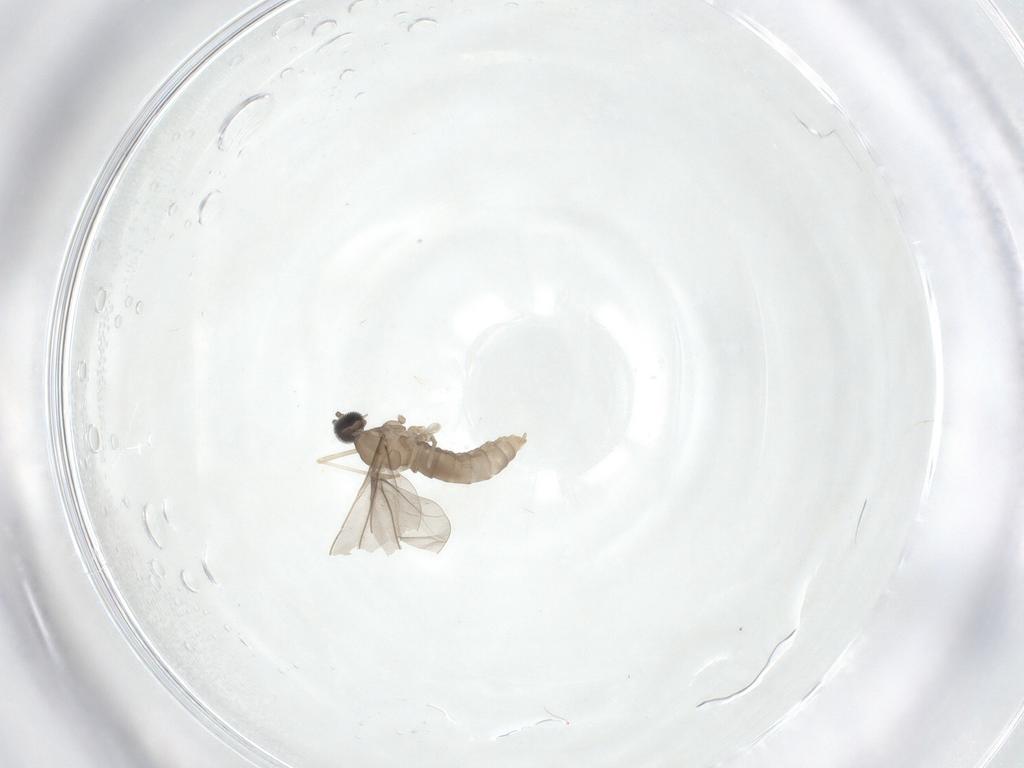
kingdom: Animalia
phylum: Arthropoda
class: Insecta
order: Diptera
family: Cecidomyiidae
